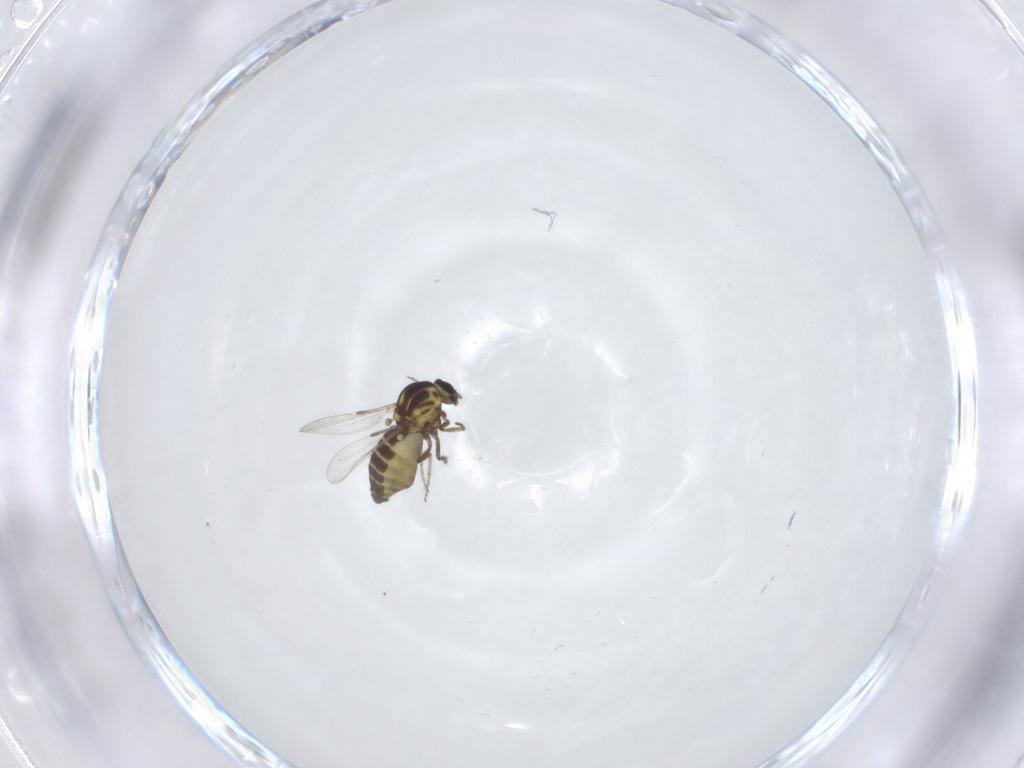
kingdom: Animalia
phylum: Arthropoda
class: Insecta
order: Diptera
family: Ceratopogonidae
